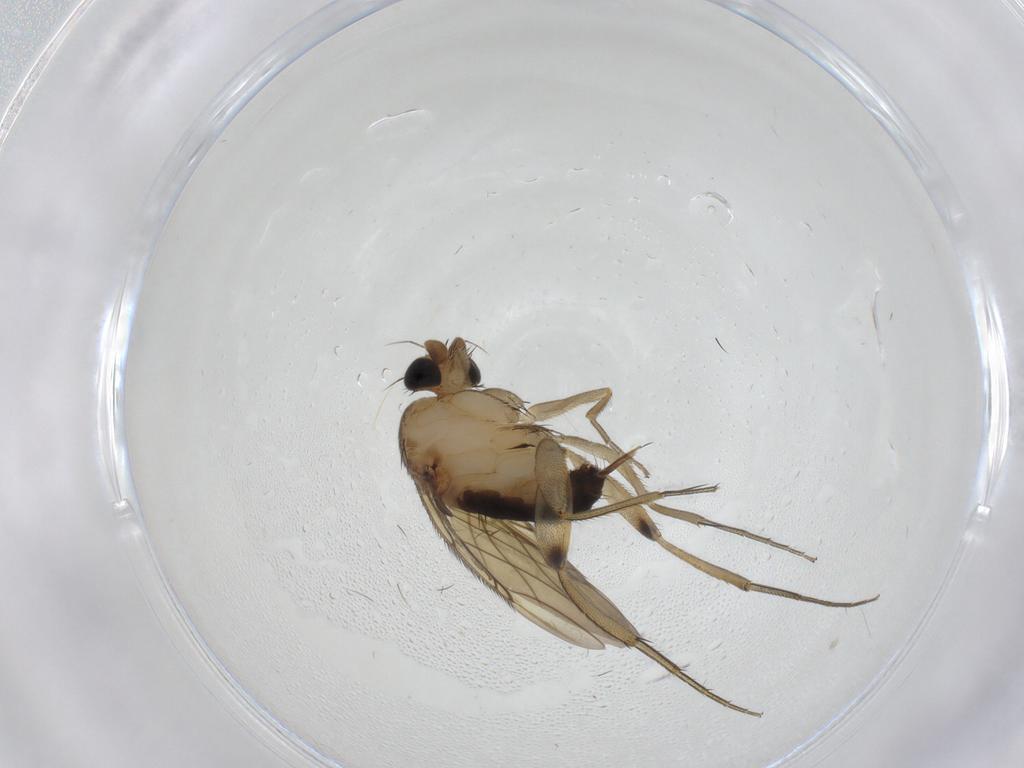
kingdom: Animalia
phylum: Arthropoda
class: Insecta
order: Diptera
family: Phoridae
